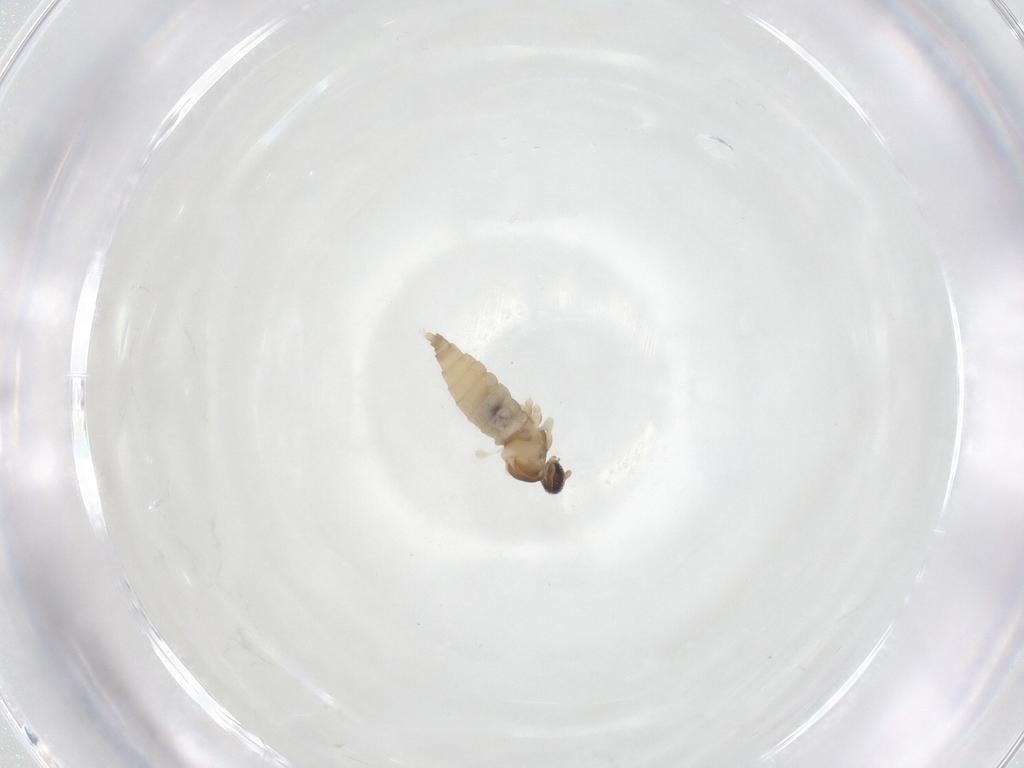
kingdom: Animalia
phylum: Arthropoda
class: Insecta
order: Diptera
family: Cecidomyiidae
